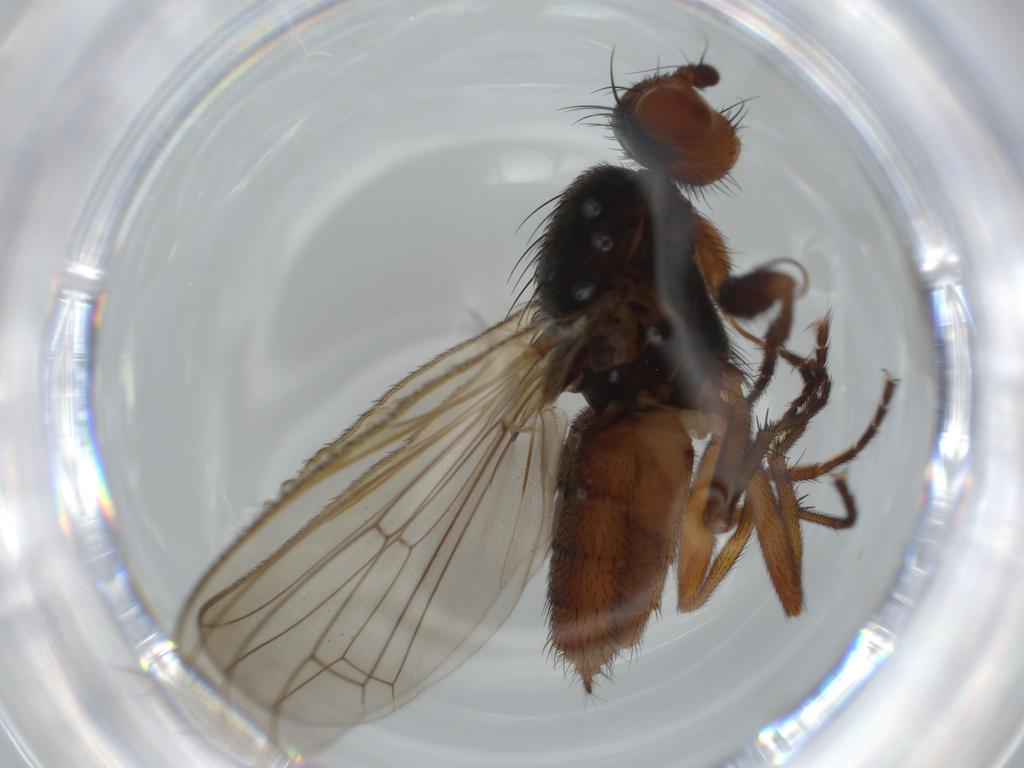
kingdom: Animalia
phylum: Arthropoda
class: Insecta
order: Diptera
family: Heleomyzidae
